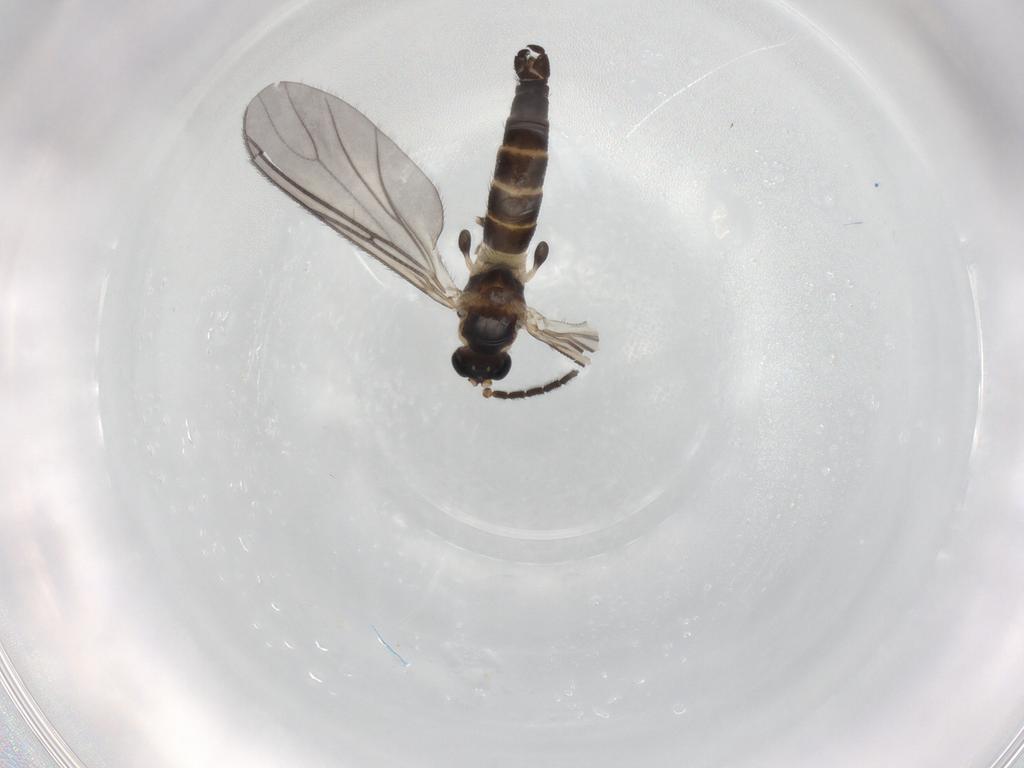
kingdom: Animalia
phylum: Arthropoda
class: Insecta
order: Diptera
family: Sciaridae
